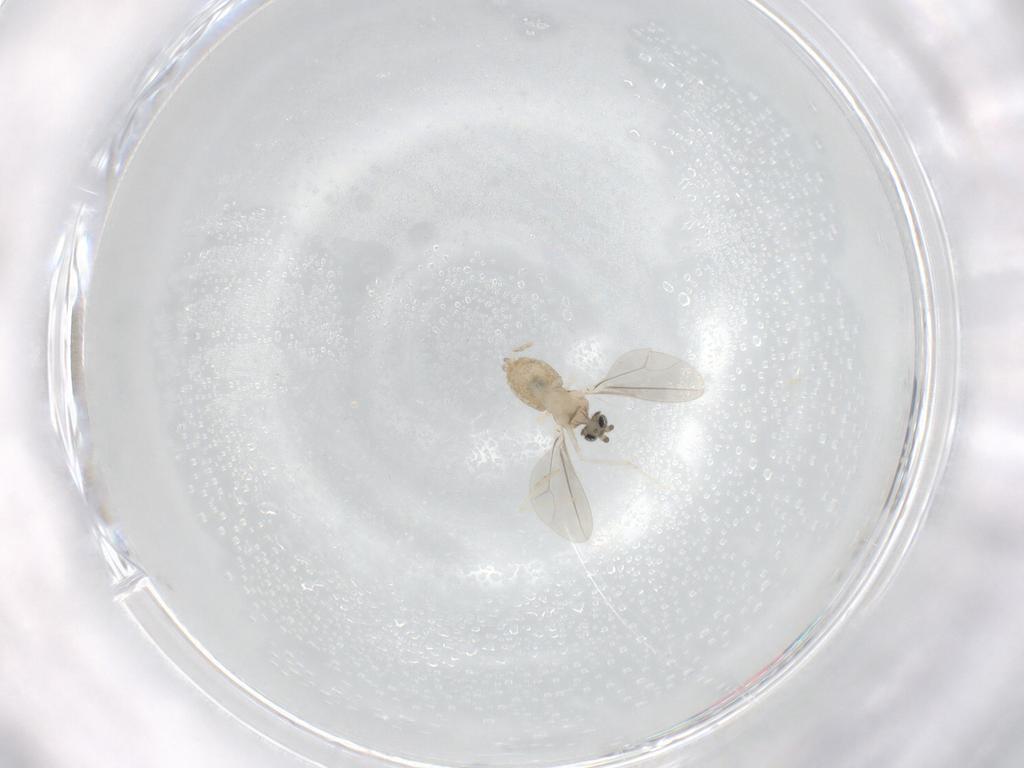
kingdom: Animalia
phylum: Arthropoda
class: Insecta
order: Diptera
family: Cecidomyiidae
